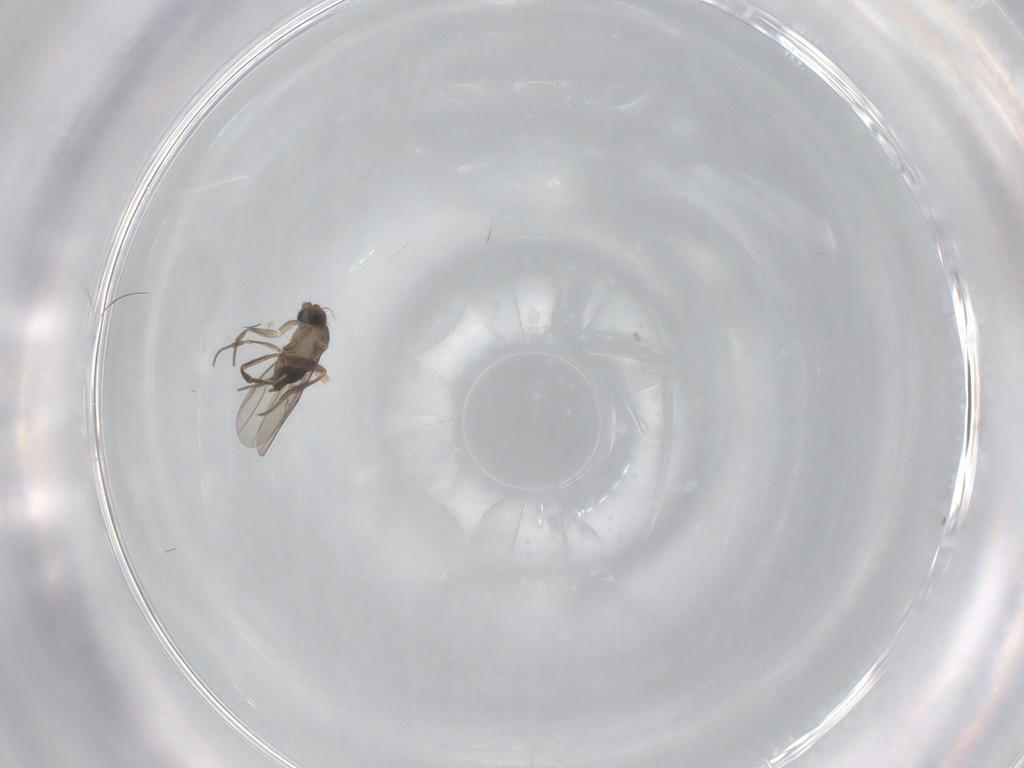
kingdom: Animalia
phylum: Arthropoda
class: Insecta
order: Diptera
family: Phoridae
